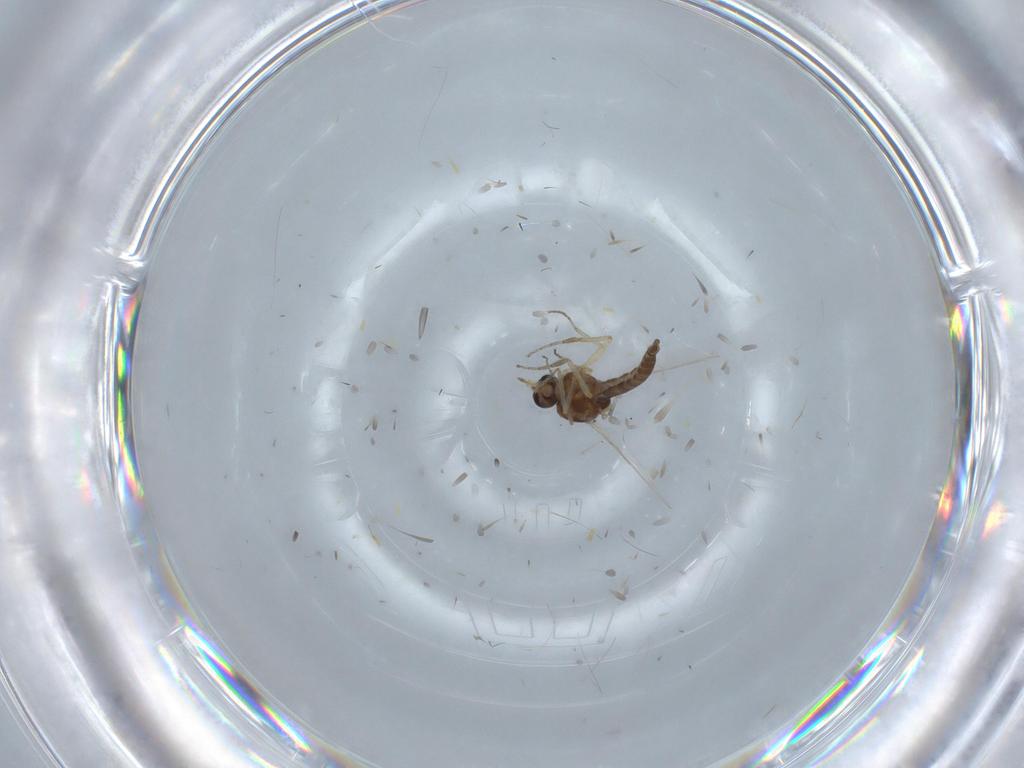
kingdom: Animalia
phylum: Arthropoda
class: Insecta
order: Diptera
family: Ceratopogonidae
